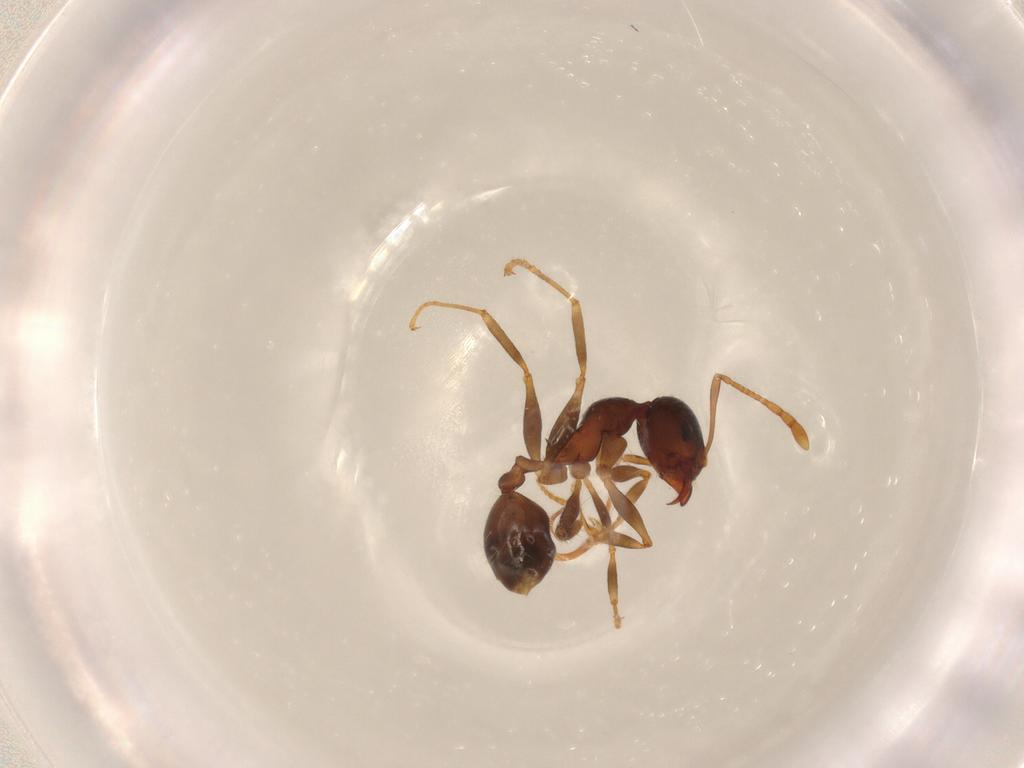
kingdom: Animalia
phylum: Arthropoda
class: Insecta
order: Hymenoptera
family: Formicidae
